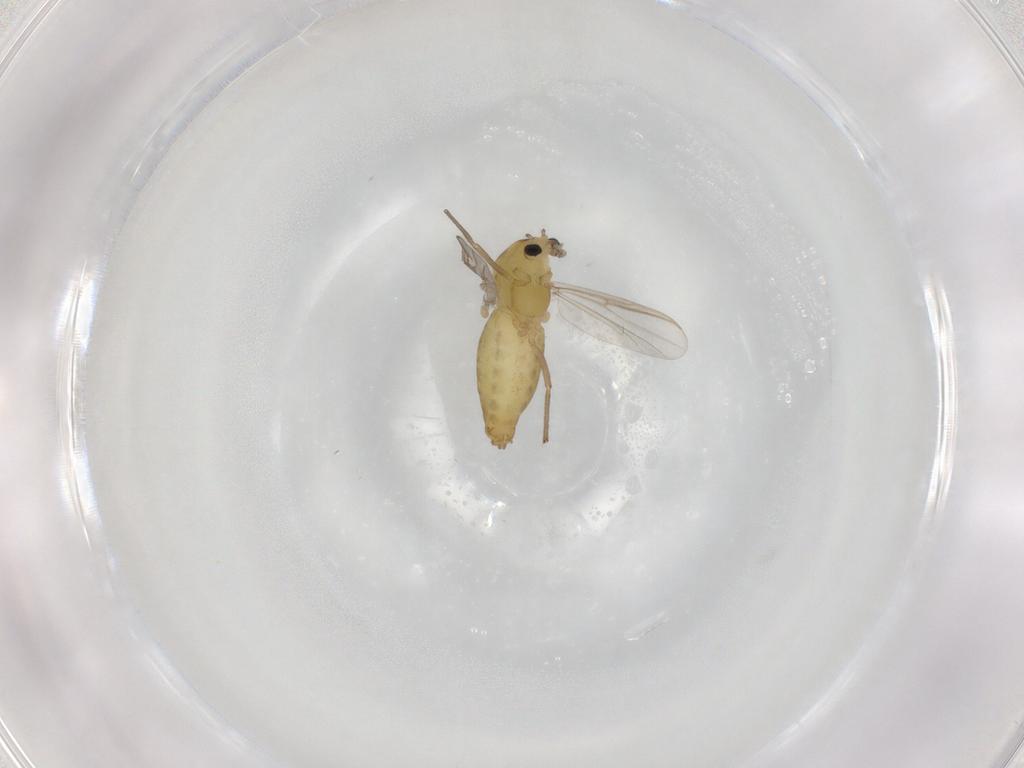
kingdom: Animalia
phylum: Arthropoda
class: Insecta
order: Diptera
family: Chironomidae
